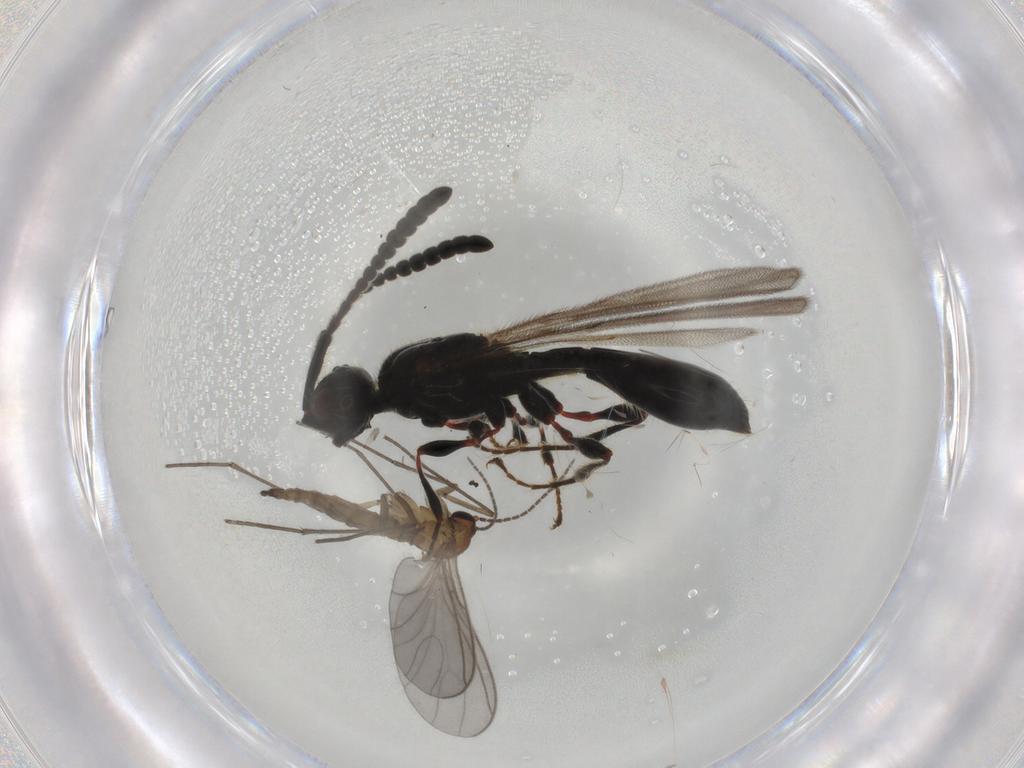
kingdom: Animalia
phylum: Arthropoda
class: Insecta
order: Diptera
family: Sciaridae
